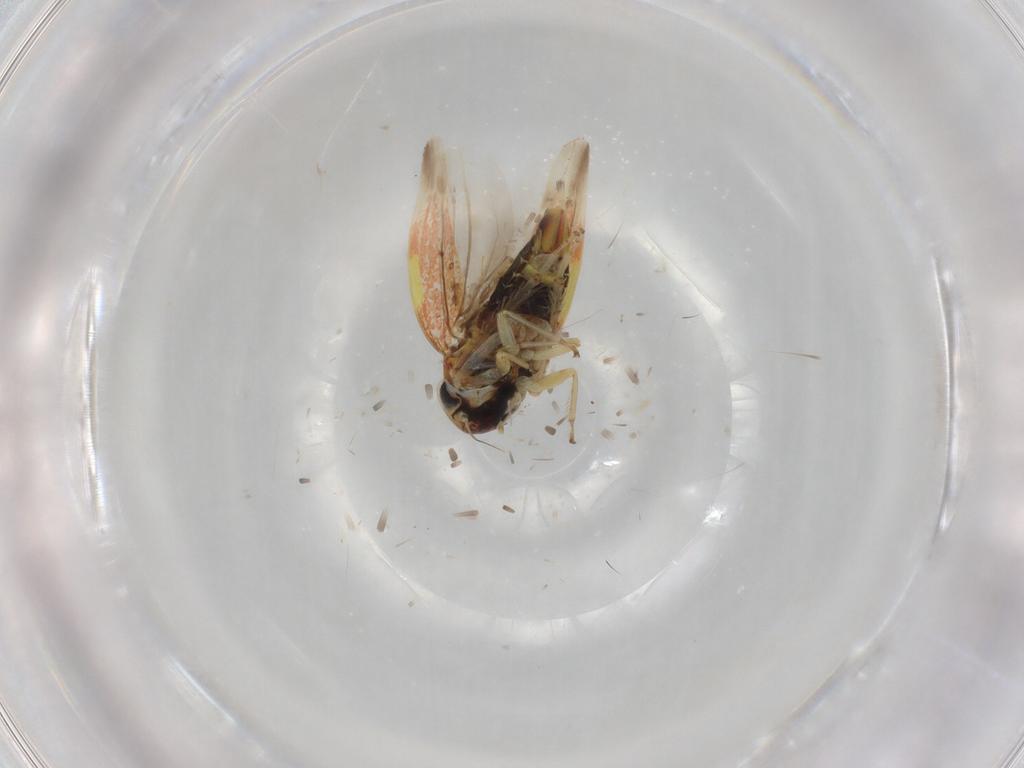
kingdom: Animalia
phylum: Arthropoda
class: Insecta
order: Hemiptera
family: Cicadellidae
